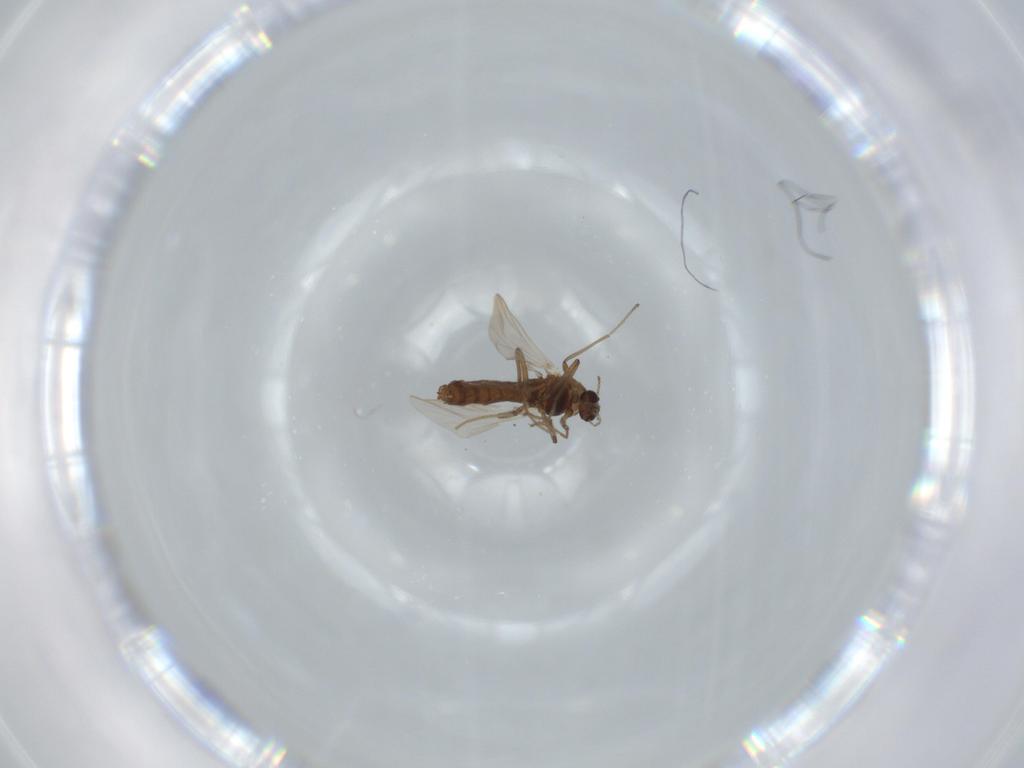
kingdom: Animalia
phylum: Arthropoda
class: Insecta
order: Diptera
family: Chironomidae
